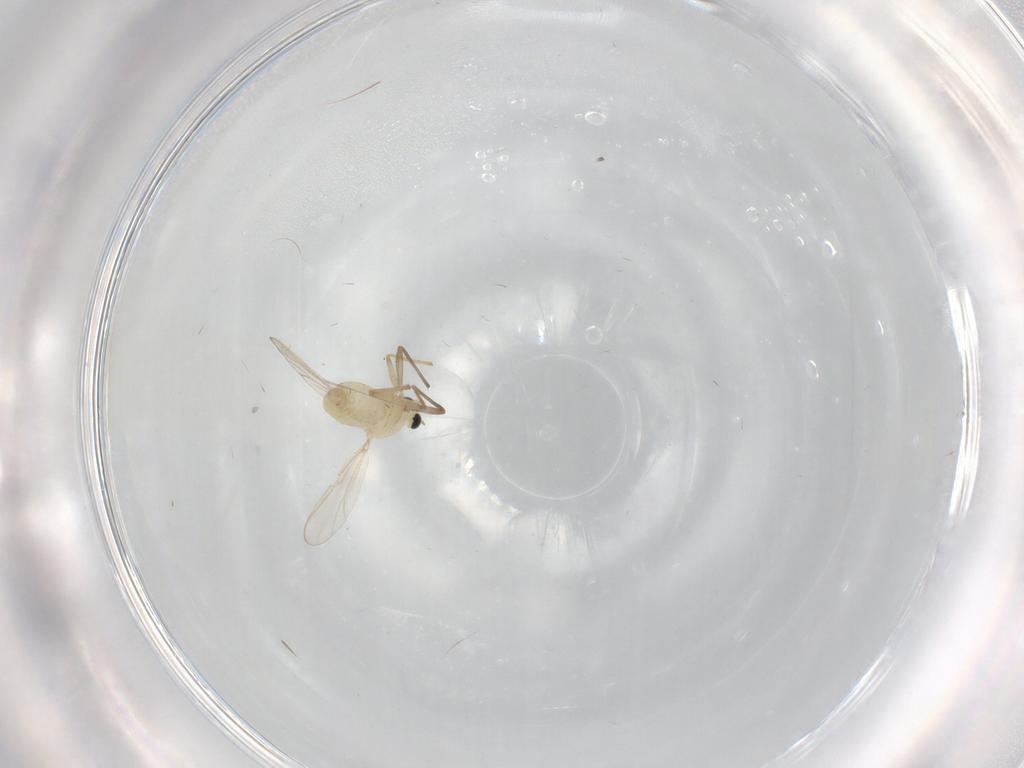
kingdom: Animalia
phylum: Arthropoda
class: Insecta
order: Diptera
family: Chironomidae
